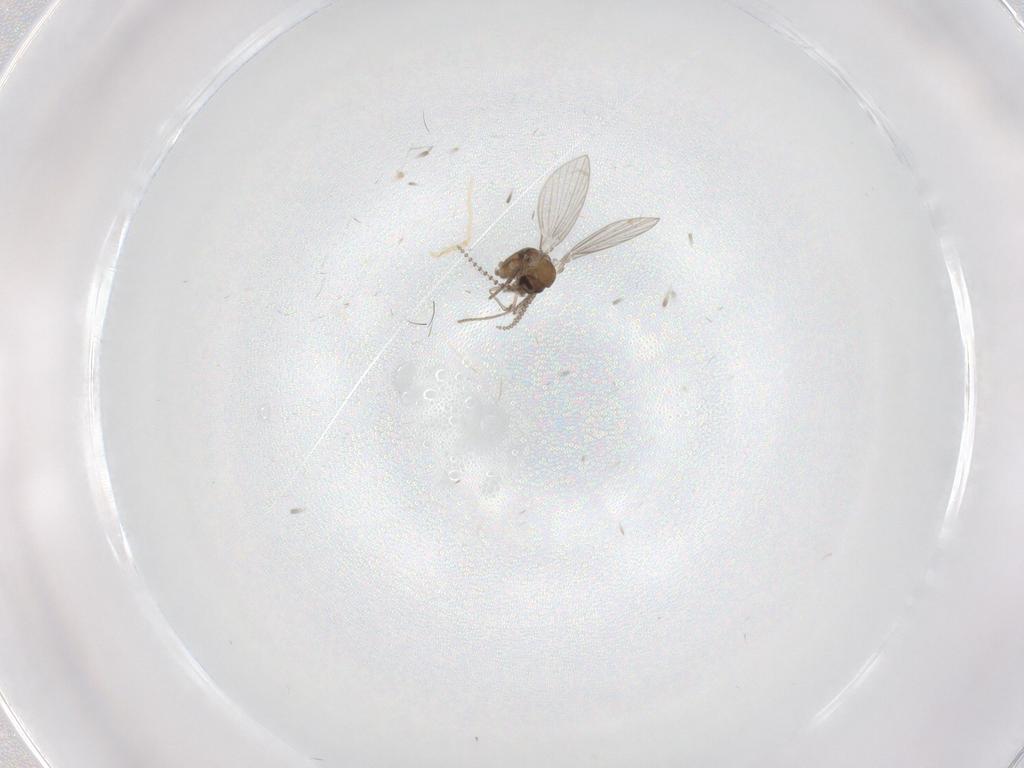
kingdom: Animalia
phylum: Arthropoda
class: Insecta
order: Diptera
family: Psychodidae
